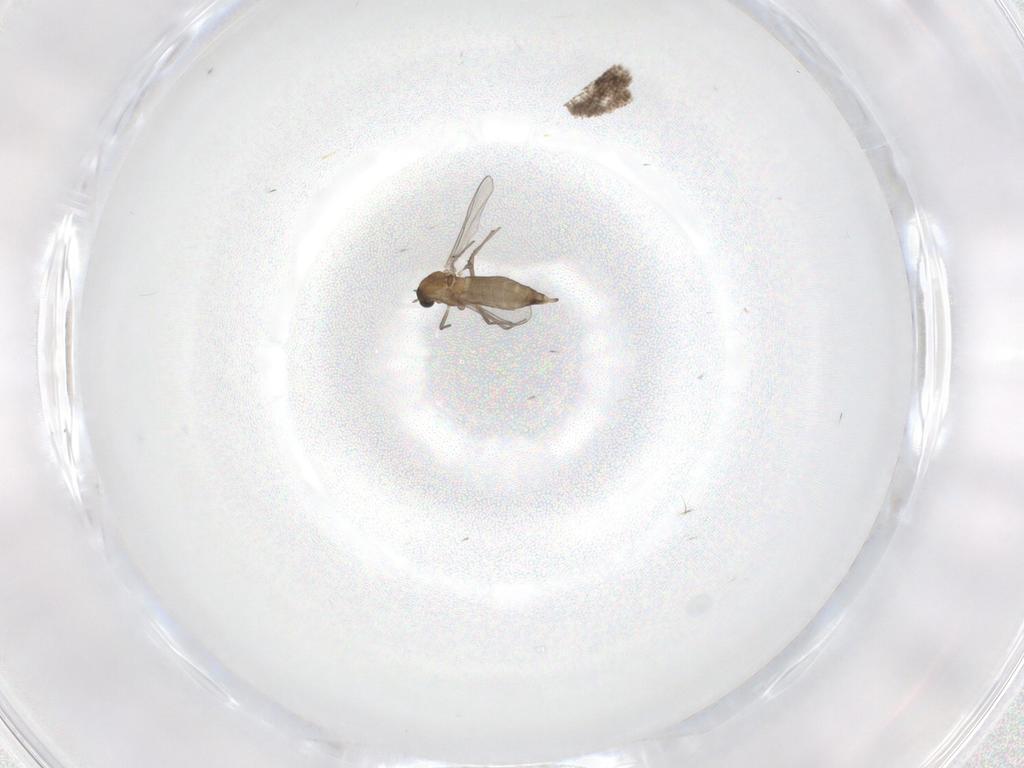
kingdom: Animalia
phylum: Arthropoda
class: Insecta
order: Diptera
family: Chironomidae
